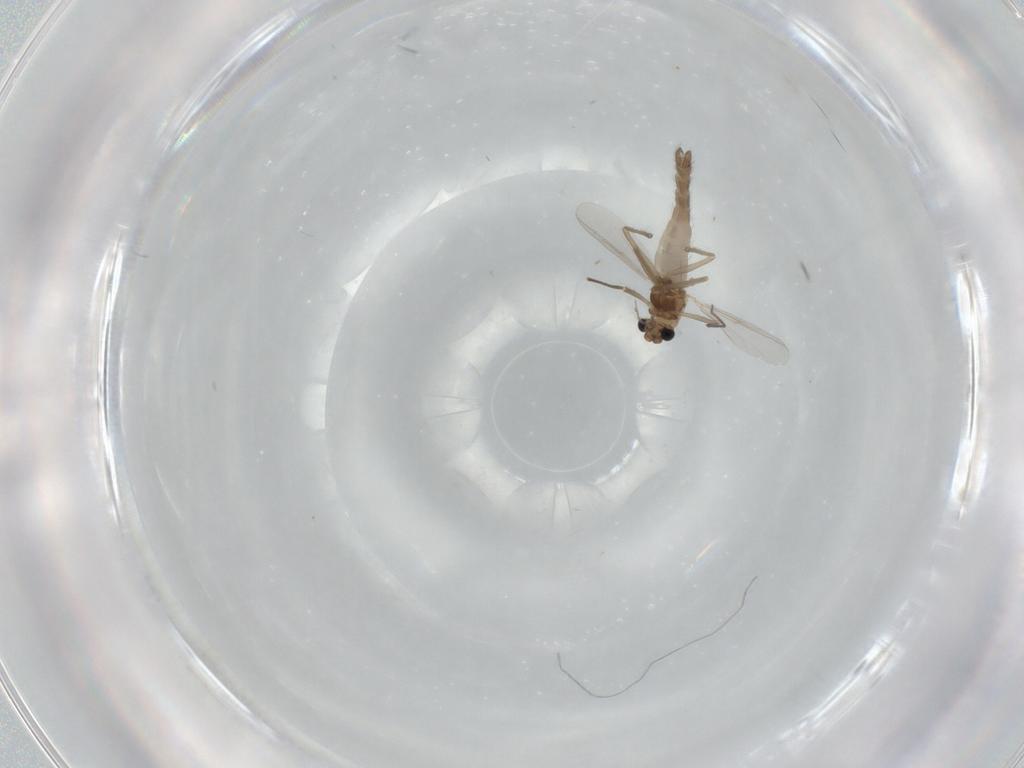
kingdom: Animalia
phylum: Arthropoda
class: Insecta
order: Diptera
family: Chironomidae
